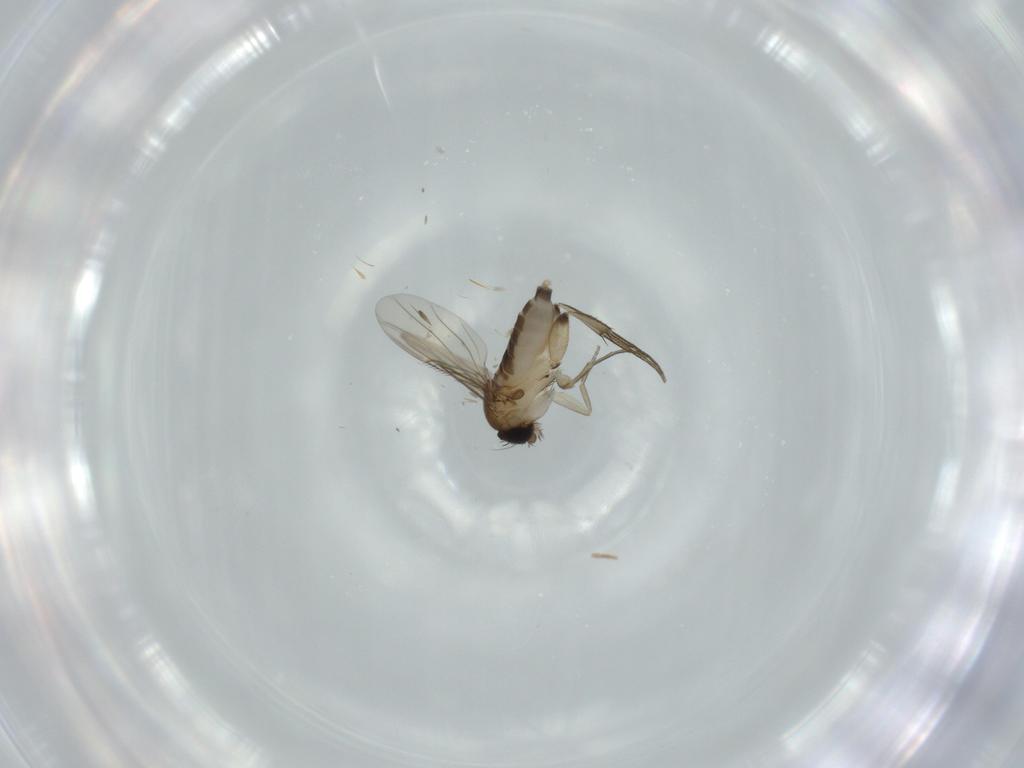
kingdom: Animalia
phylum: Arthropoda
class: Insecta
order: Diptera
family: Phoridae
